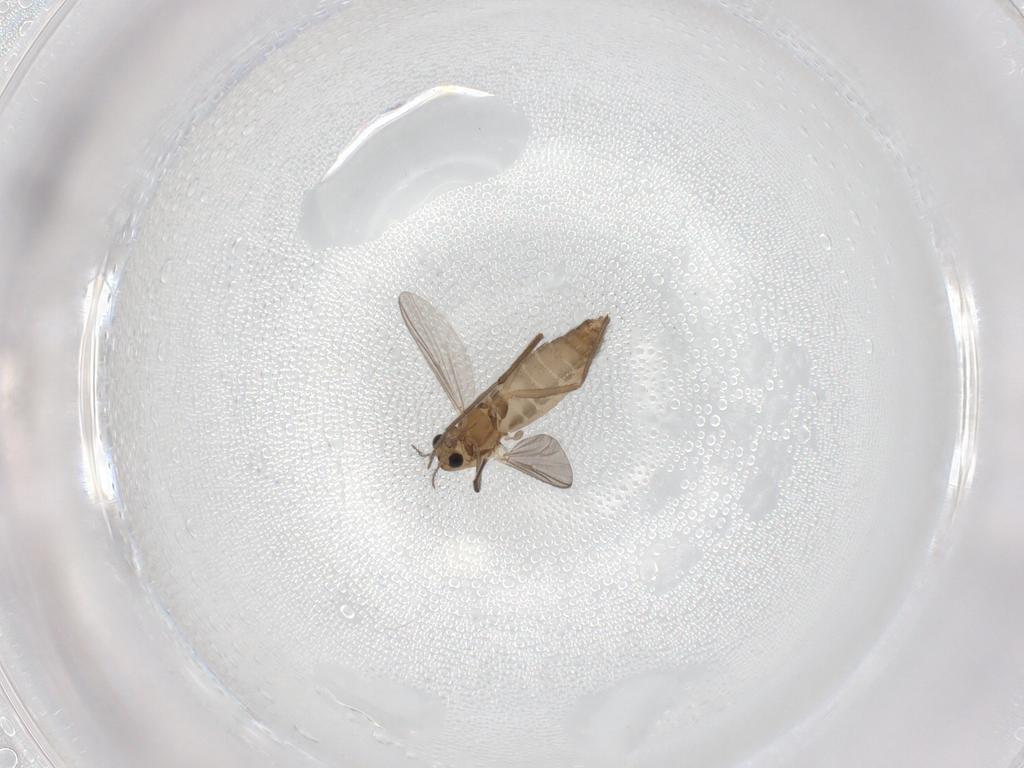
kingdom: Animalia
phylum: Arthropoda
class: Insecta
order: Diptera
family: Chironomidae
